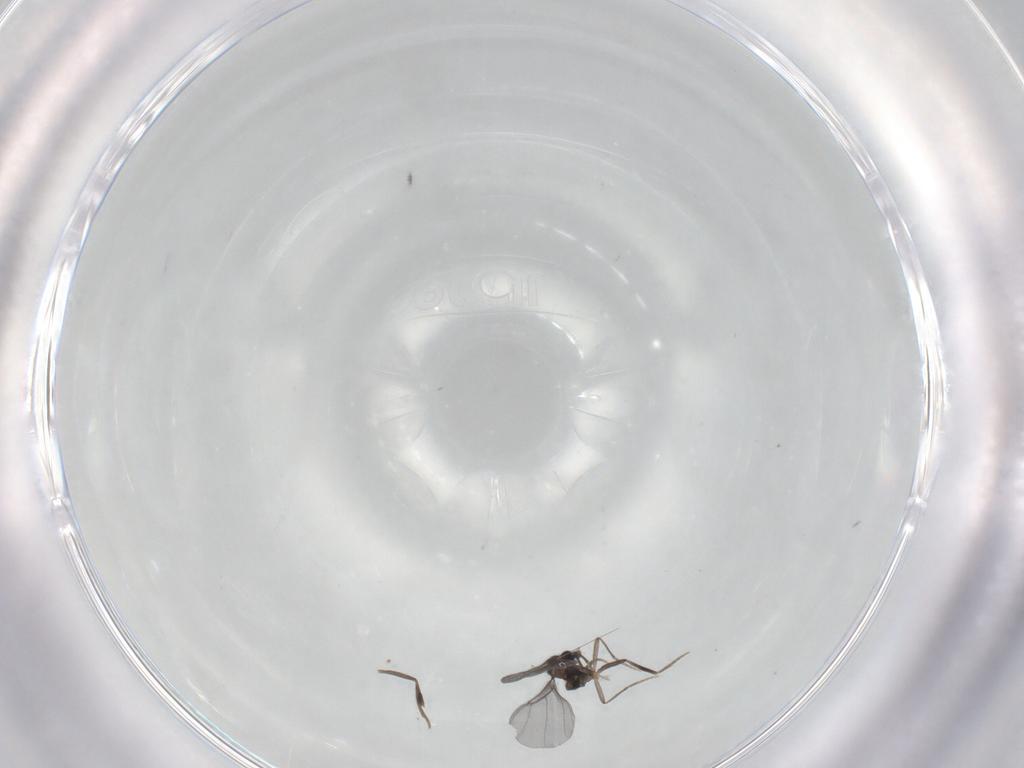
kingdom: Animalia
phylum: Arthropoda
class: Insecta
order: Diptera
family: Phoridae
